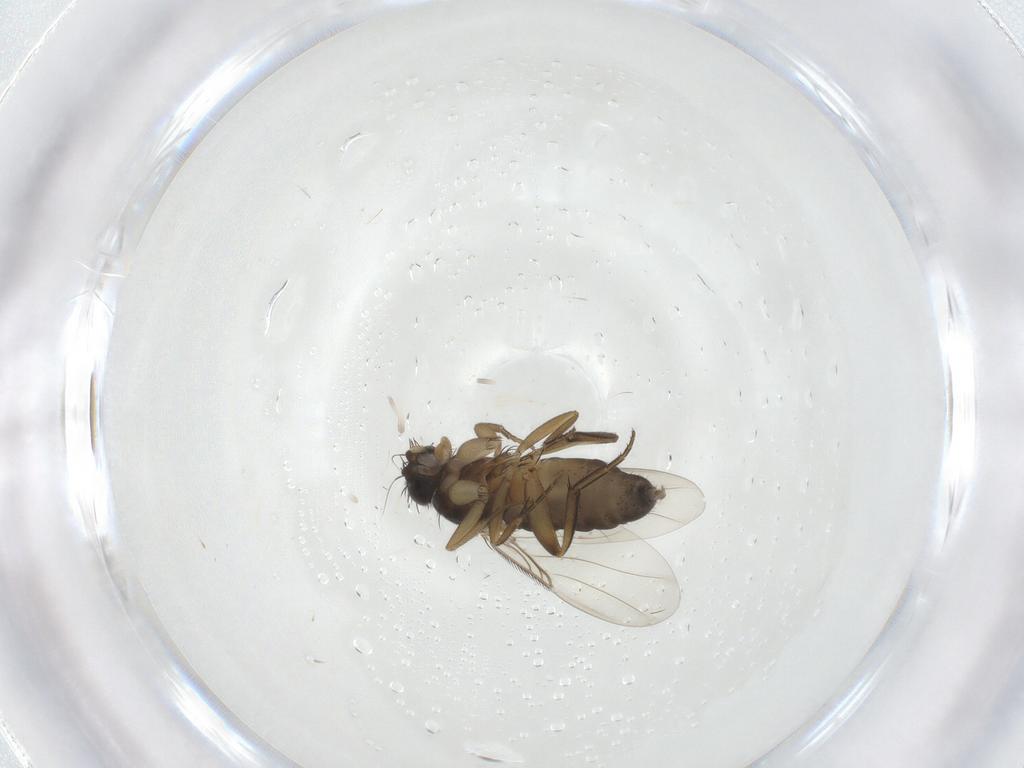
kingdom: Animalia
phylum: Arthropoda
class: Insecta
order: Diptera
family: Phoridae
